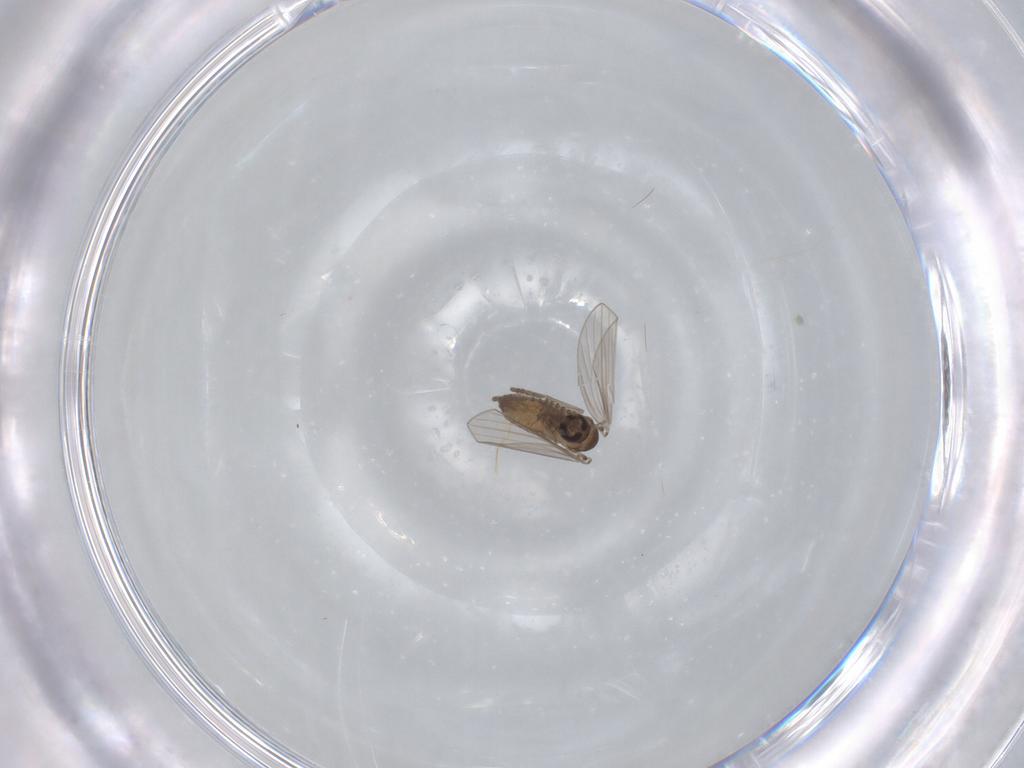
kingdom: Animalia
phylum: Arthropoda
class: Insecta
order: Diptera
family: Psychodidae
